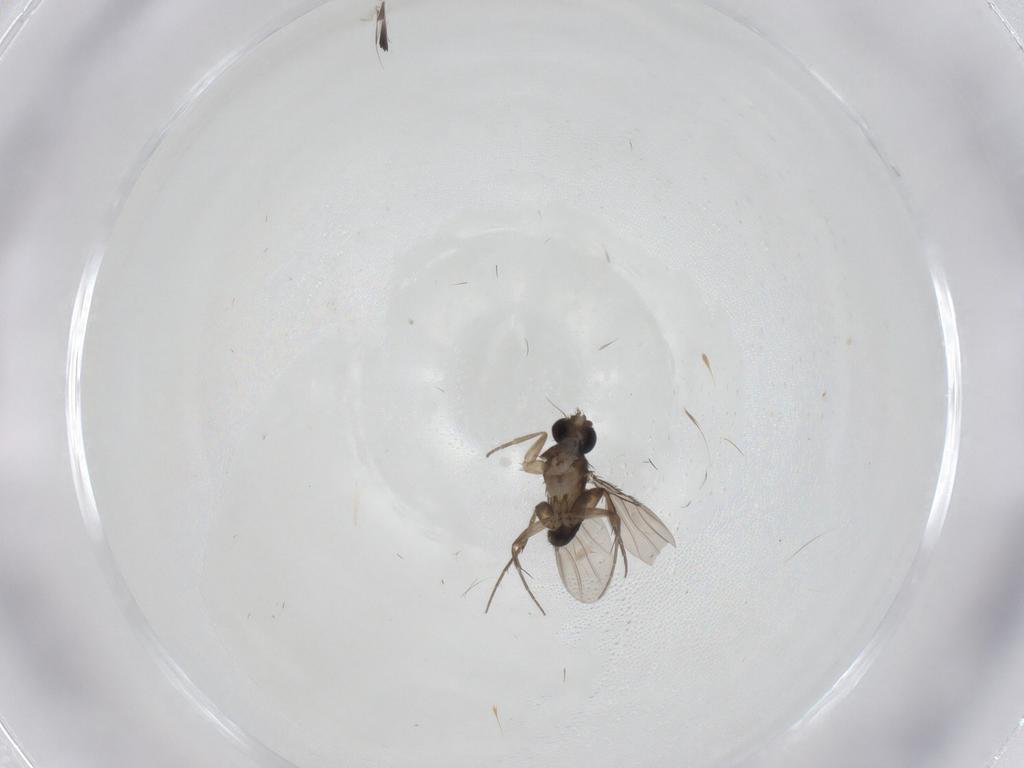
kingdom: Animalia
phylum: Arthropoda
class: Insecta
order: Diptera
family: Phoridae
